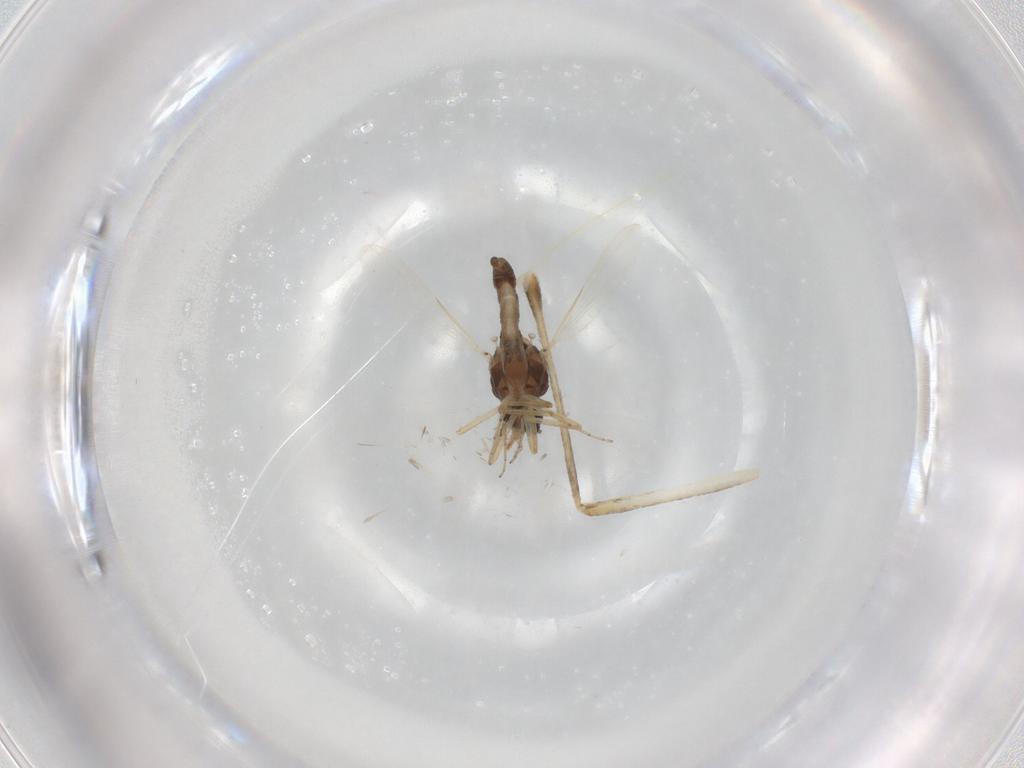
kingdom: Animalia
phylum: Arthropoda
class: Insecta
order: Diptera
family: Culicidae
